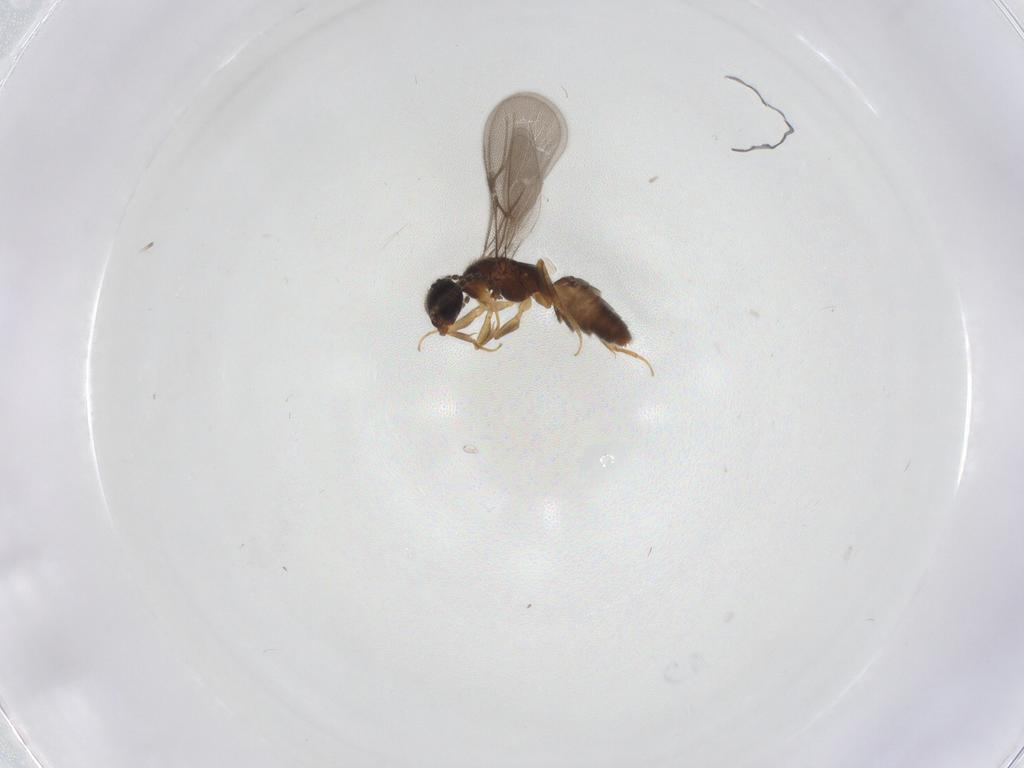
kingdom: Animalia
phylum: Arthropoda
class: Insecta
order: Hymenoptera
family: Bethylidae
